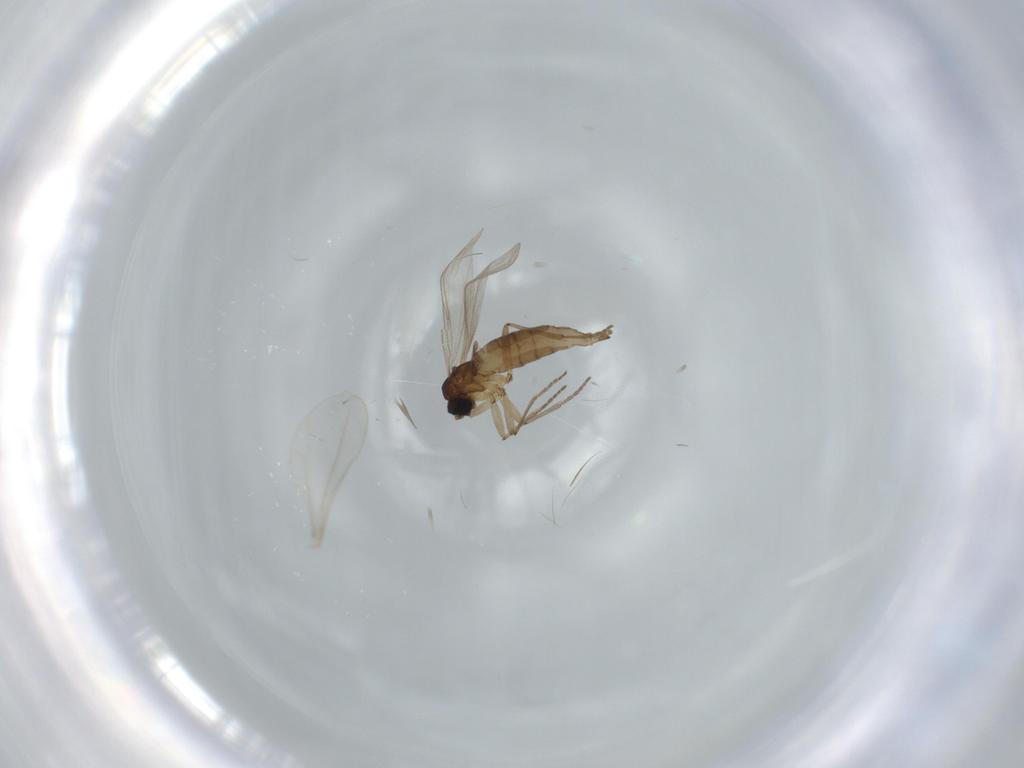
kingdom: Animalia
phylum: Arthropoda
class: Insecta
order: Diptera
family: Sciaridae
